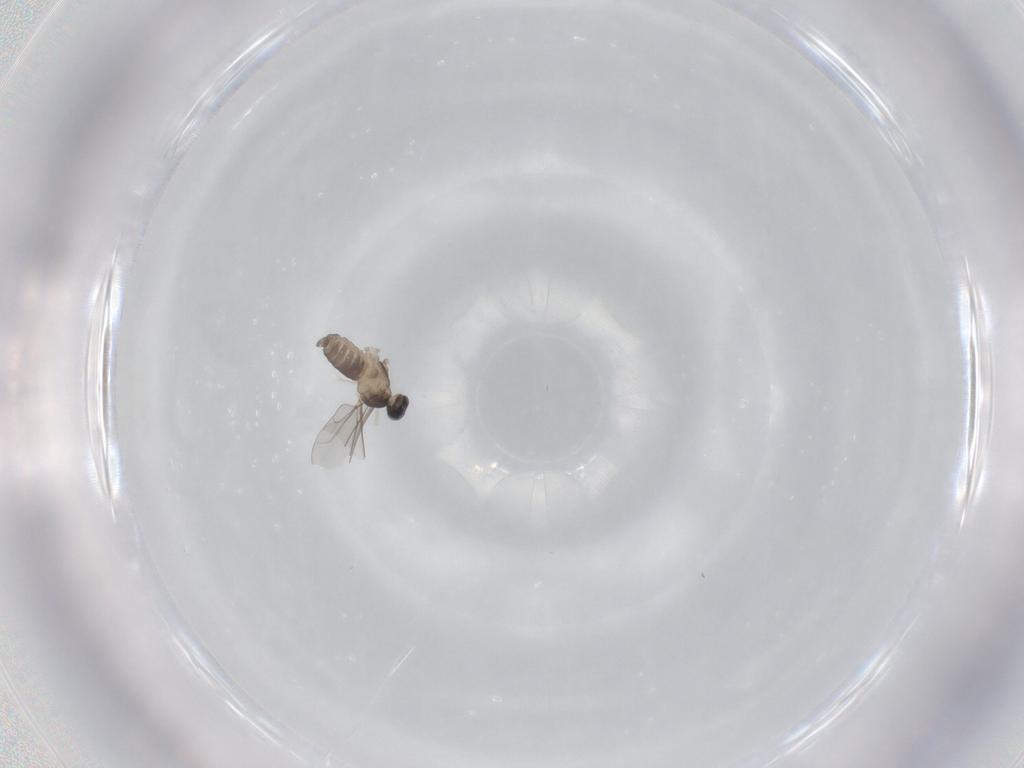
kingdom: Animalia
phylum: Arthropoda
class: Insecta
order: Diptera
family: Cecidomyiidae
